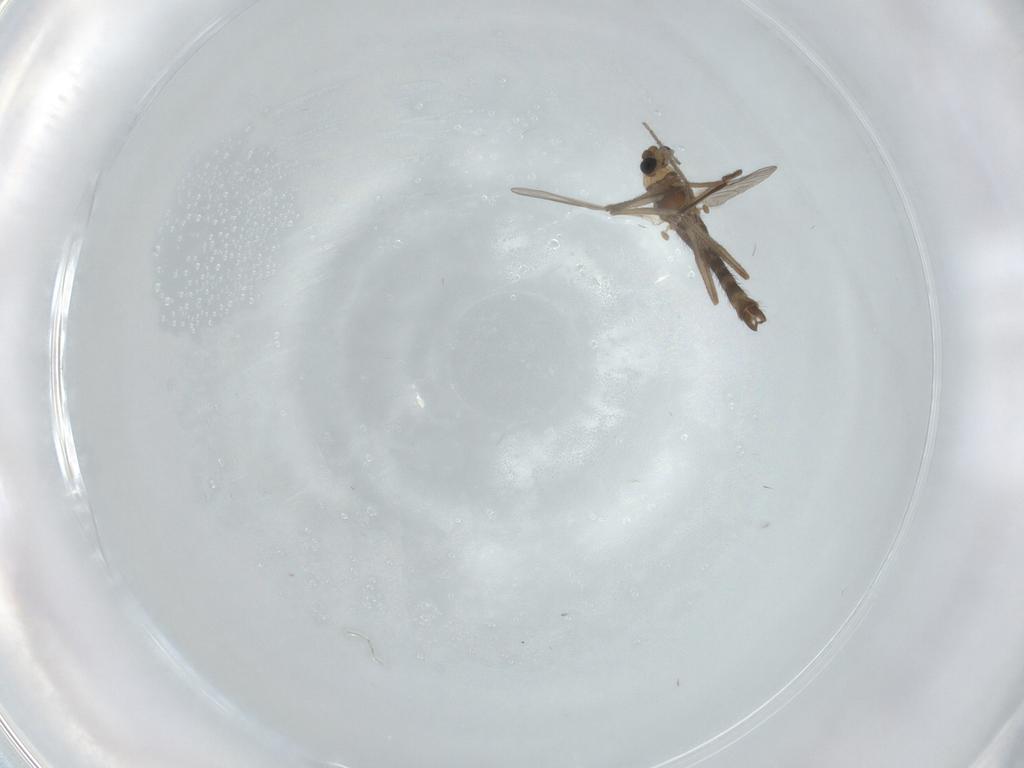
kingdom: Animalia
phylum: Arthropoda
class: Insecta
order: Diptera
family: Chironomidae
